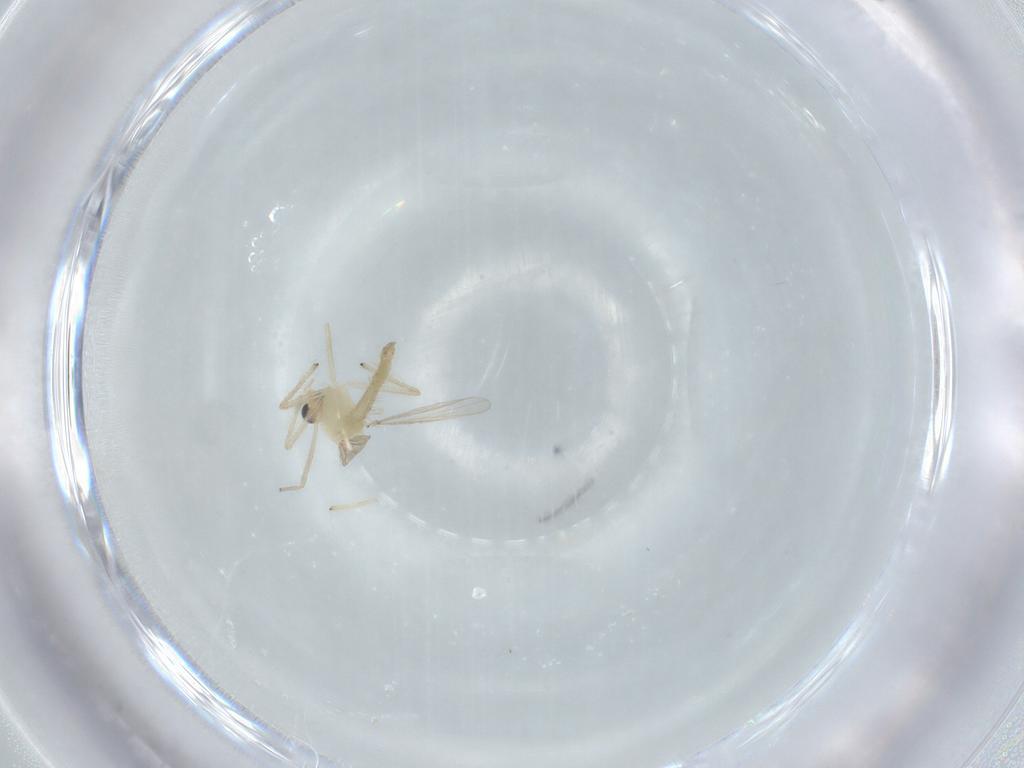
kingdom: Animalia
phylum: Arthropoda
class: Insecta
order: Diptera
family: Chironomidae
